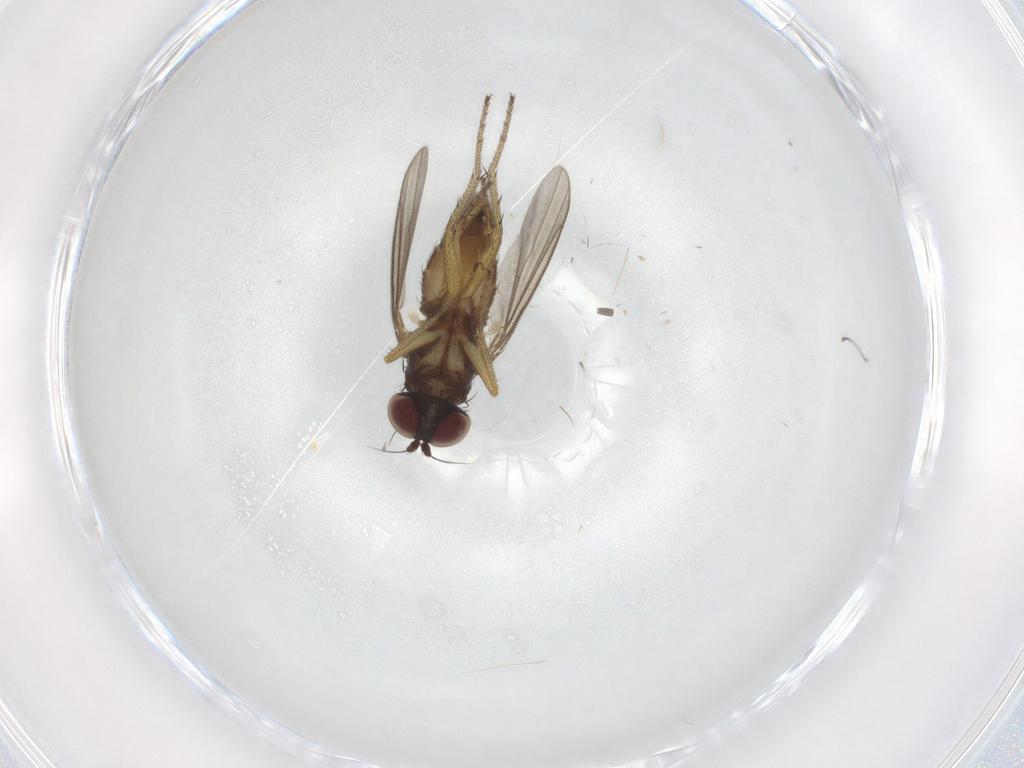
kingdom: Animalia
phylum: Arthropoda
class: Insecta
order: Diptera
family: Dolichopodidae
